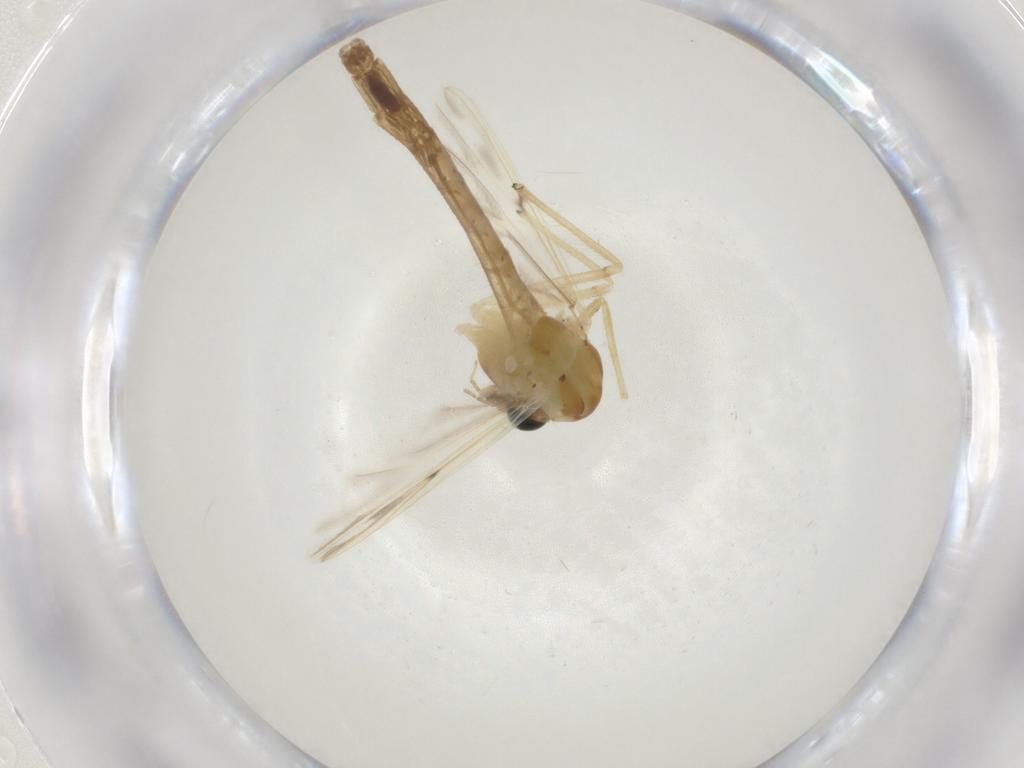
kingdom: Animalia
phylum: Arthropoda
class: Insecta
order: Diptera
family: Chironomidae
